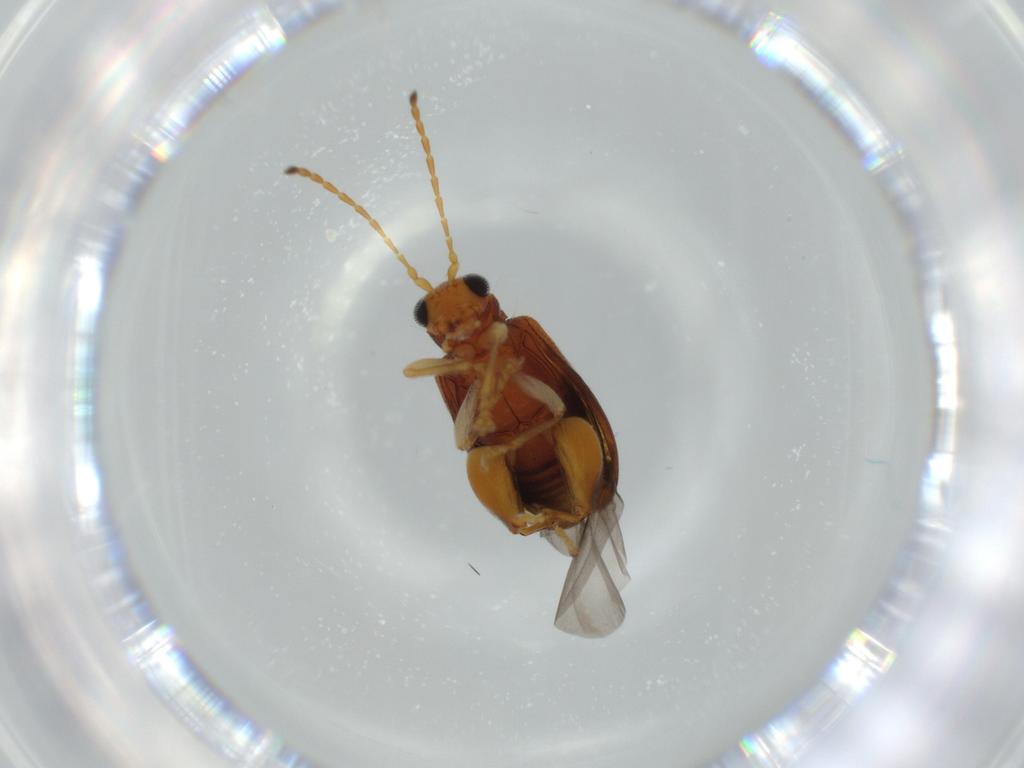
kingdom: Animalia
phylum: Arthropoda
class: Insecta
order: Coleoptera
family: Chrysomelidae
